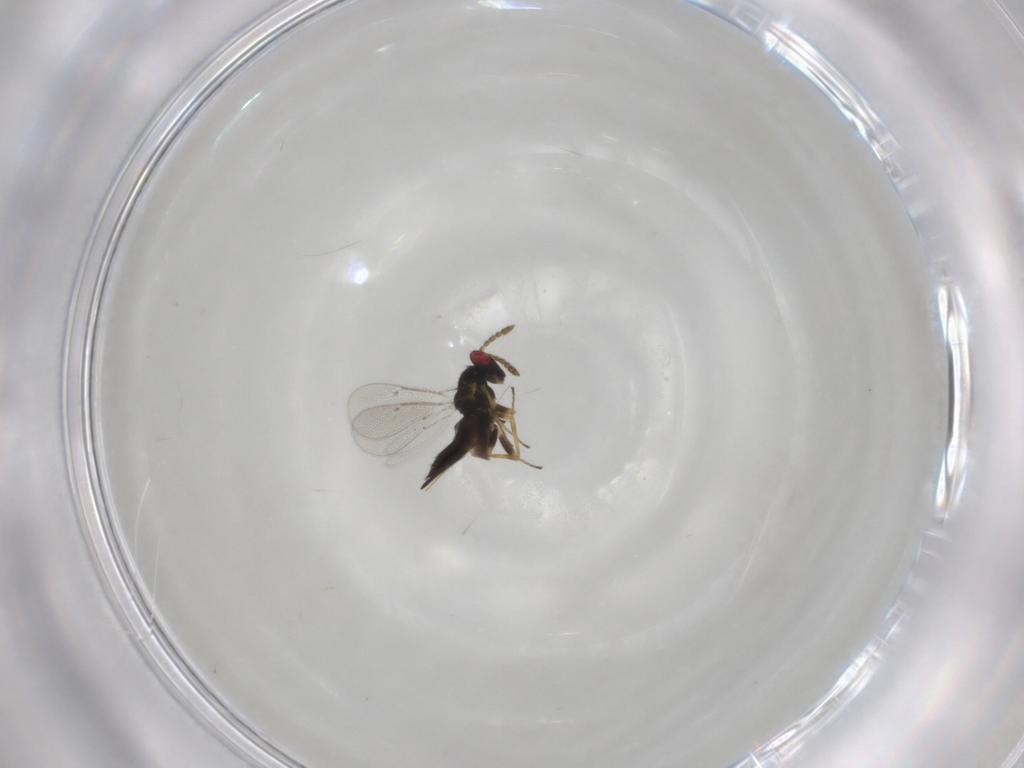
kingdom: Animalia
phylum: Arthropoda
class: Insecta
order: Hymenoptera
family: Eulophidae
